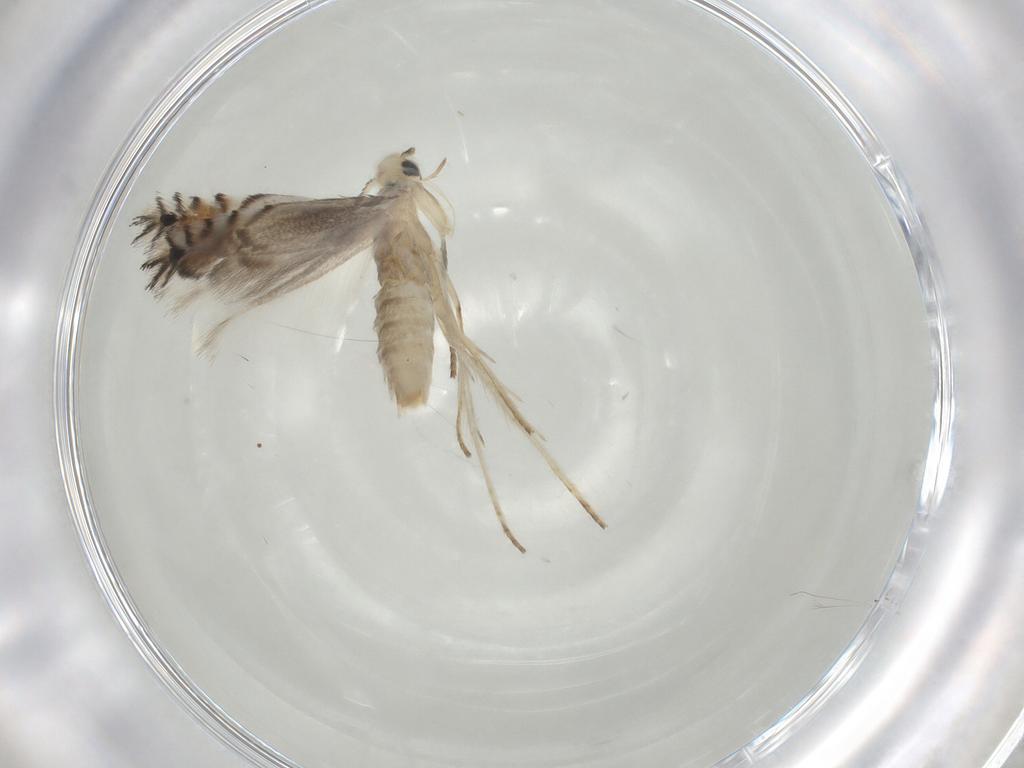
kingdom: Animalia
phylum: Arthropoda
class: Insecta
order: Lepidoptera
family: Gracillariidae
